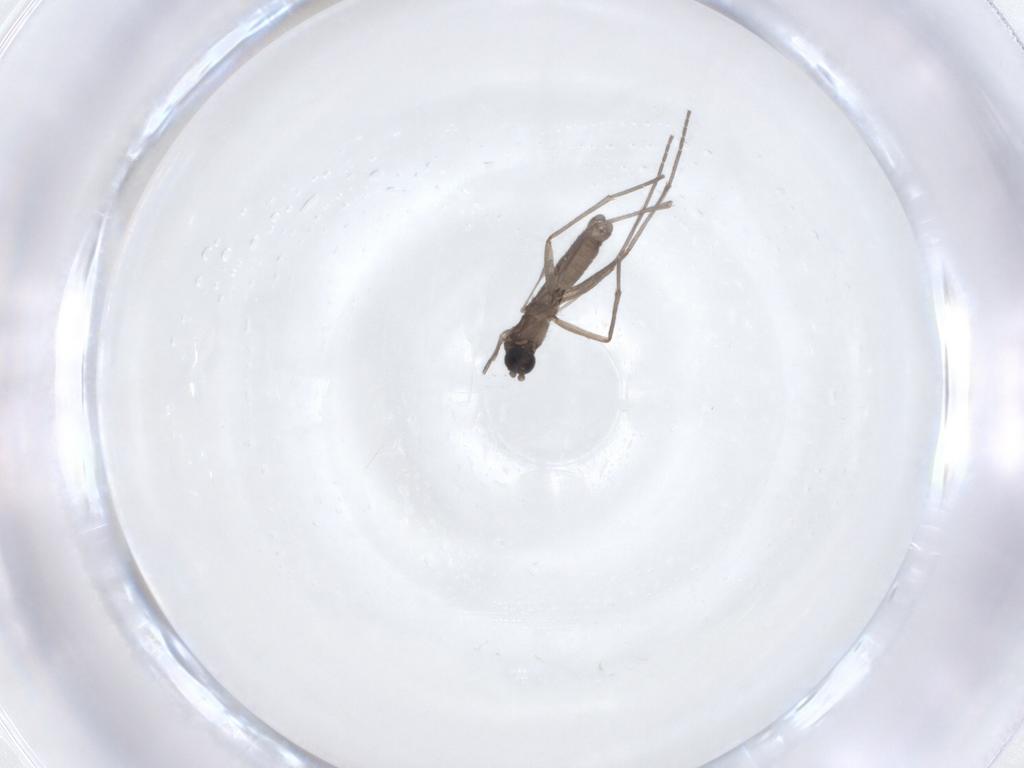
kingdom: Animalia
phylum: Arthropoda
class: Insecta
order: Diptera
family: Sciaridae
